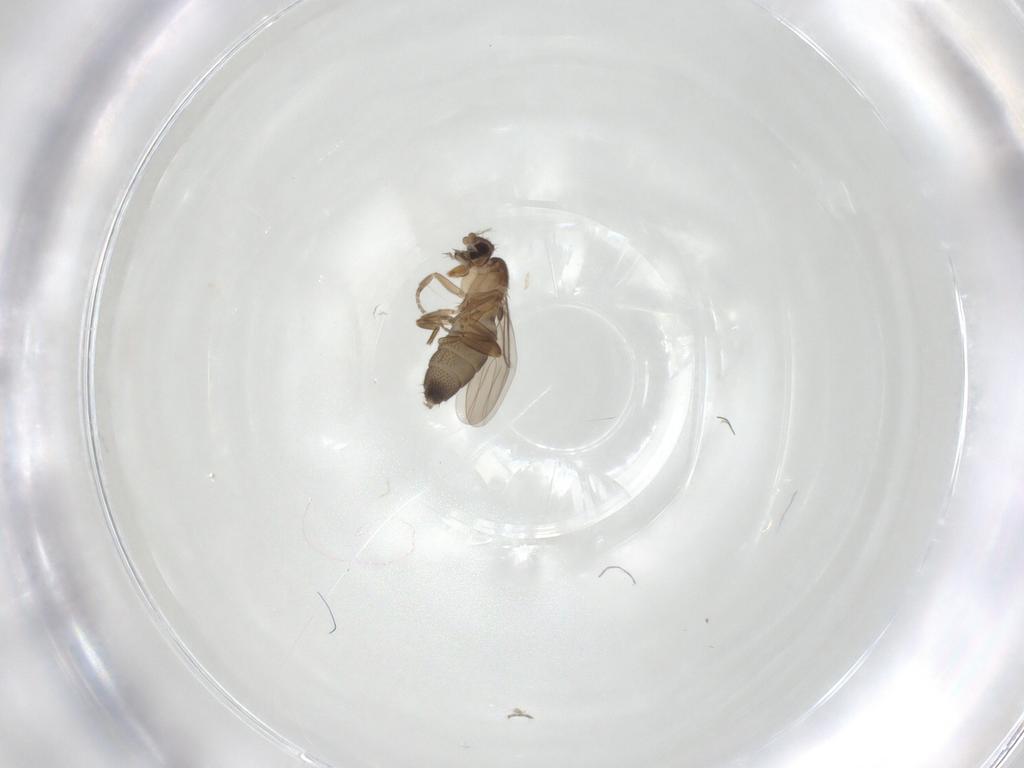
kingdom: Animalia
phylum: Arthropoda
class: Insecta
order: Diptera
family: Phoridae
